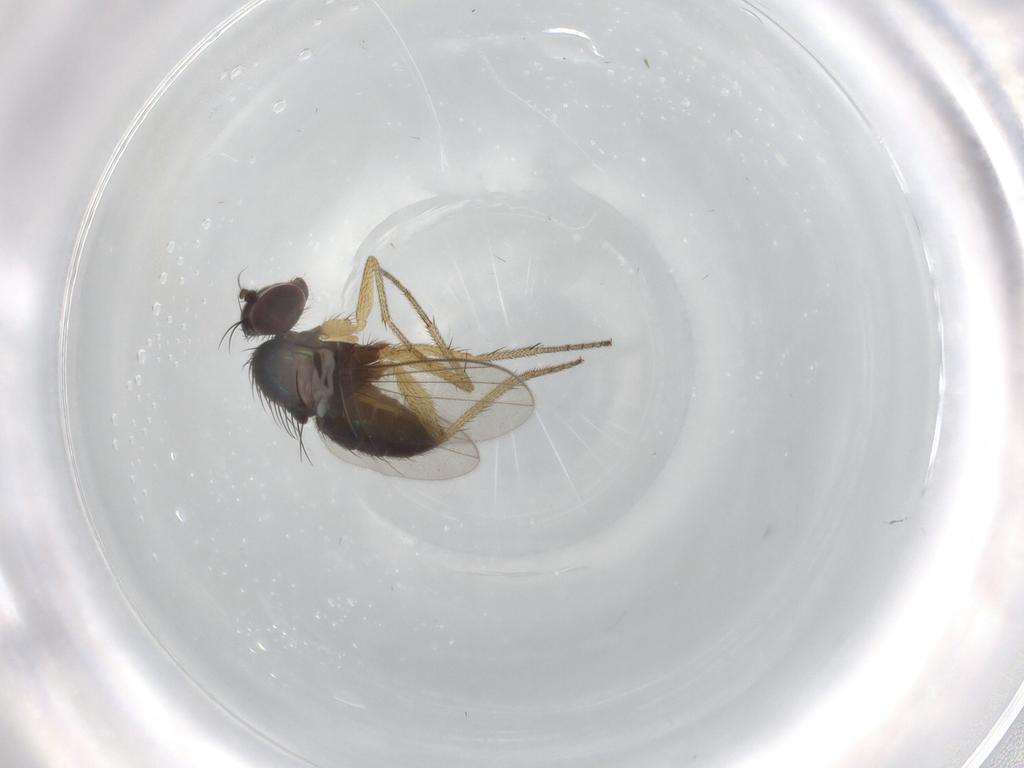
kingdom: Animalia
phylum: Arthropoda
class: Insecta
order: Diptera
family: Dolichopodidae
